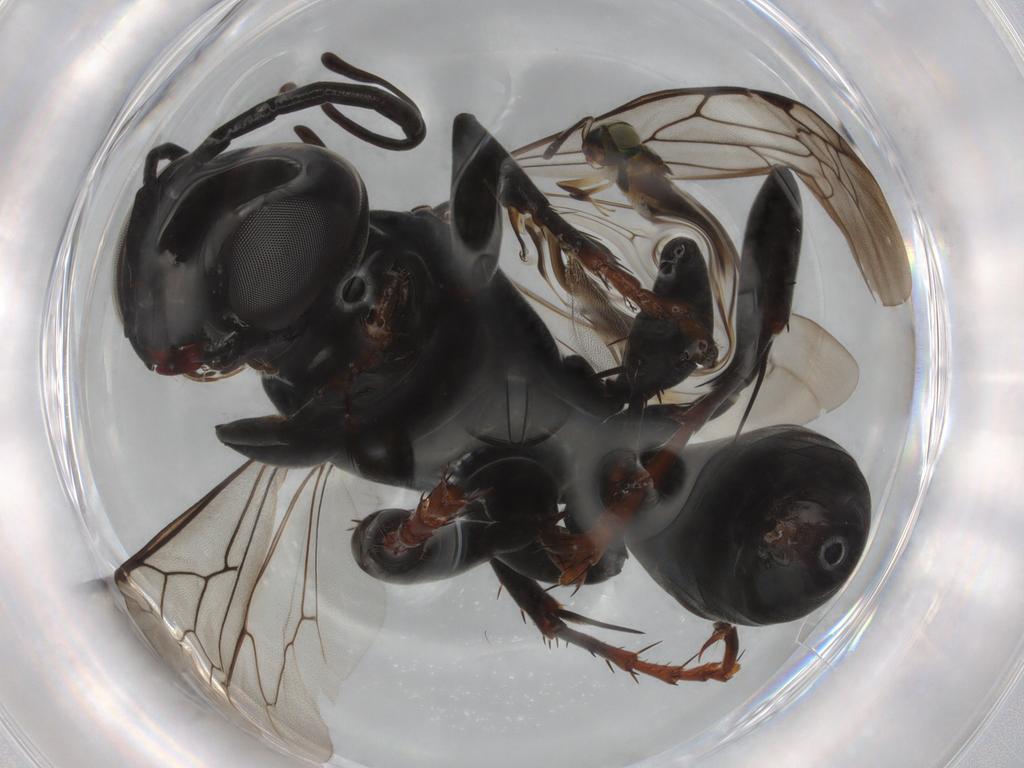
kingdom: Animalia
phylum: Arthropoda
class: Insecta
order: Hymenoptera
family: Crabronidae
